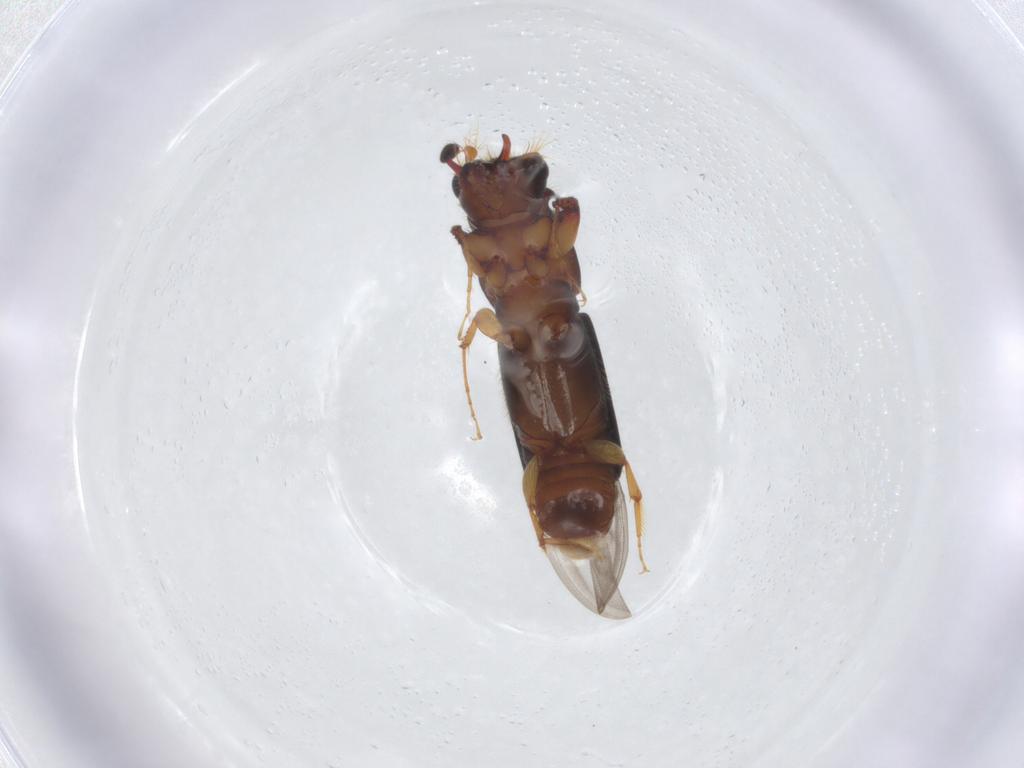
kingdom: Animalia
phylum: Arthropoda
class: Insecta
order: Coleoptera
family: Curculionidae
